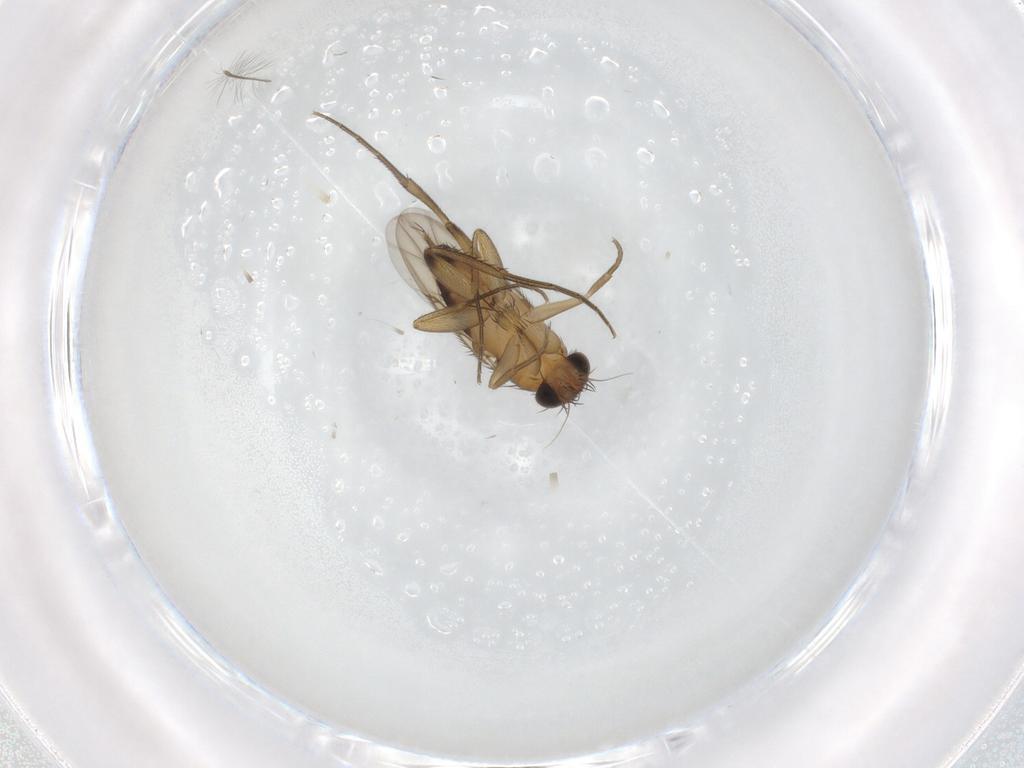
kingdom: Animalia
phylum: Arthropoda
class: Insecta
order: Diptera
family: Phoridae
